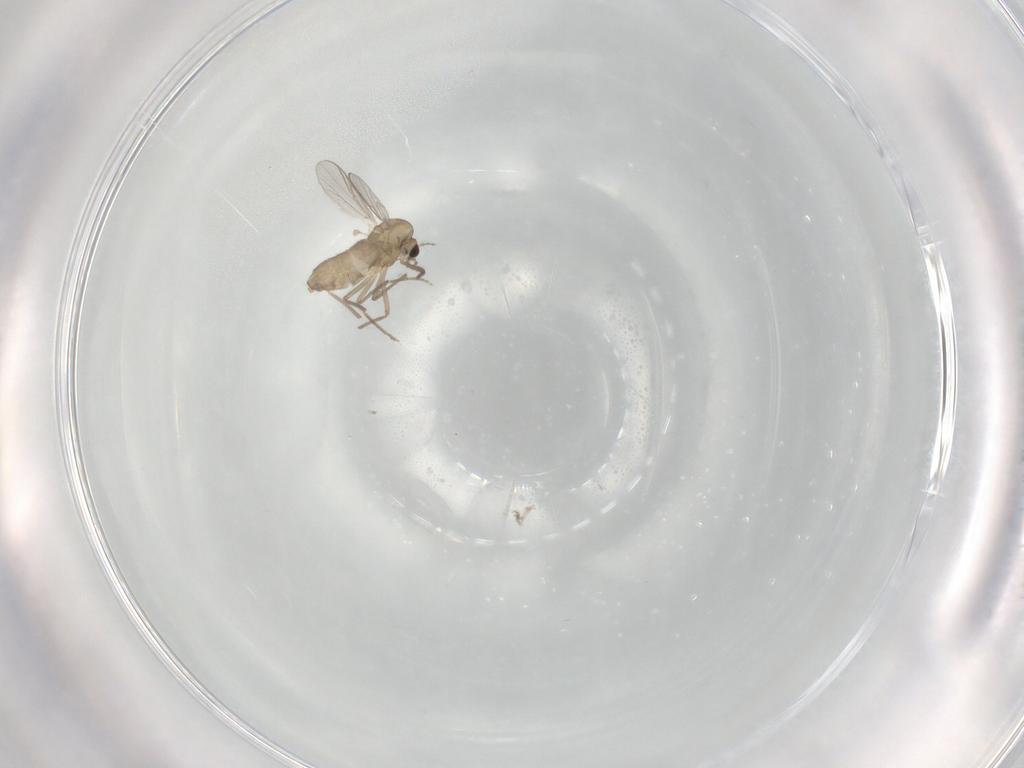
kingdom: Animalia
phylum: Arthropoda
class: Insecta
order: Diptera
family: Chironomidae
